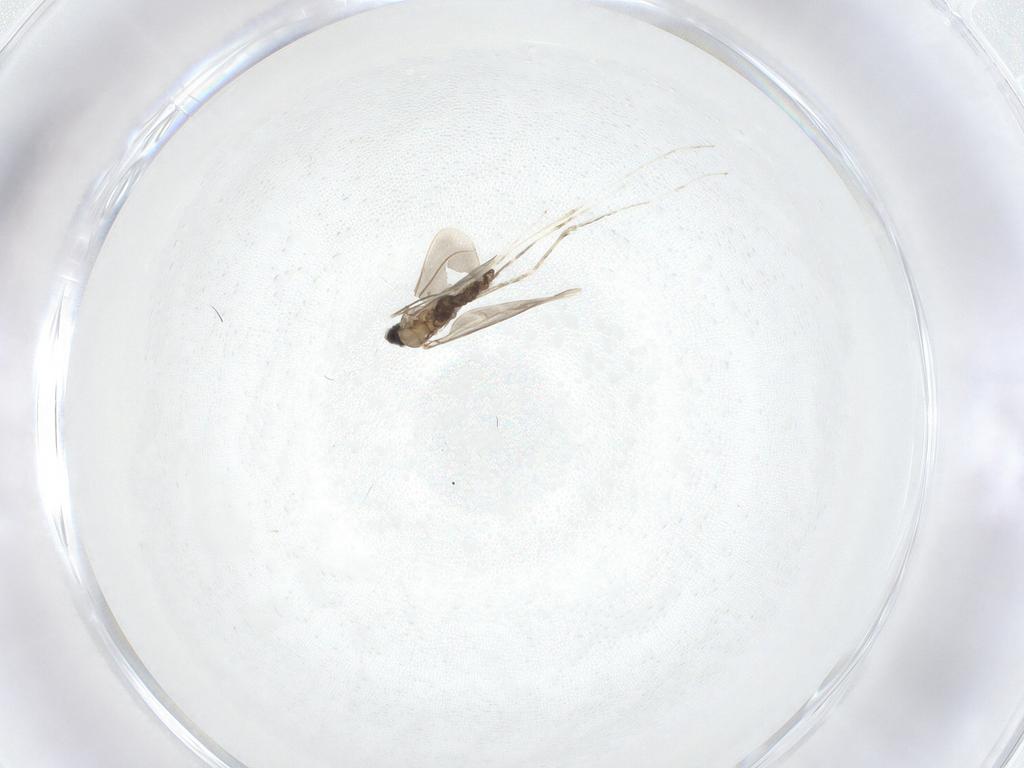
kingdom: Animalia
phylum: Arthropoda
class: Insecta
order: Diptera
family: Cecidomyiidae
